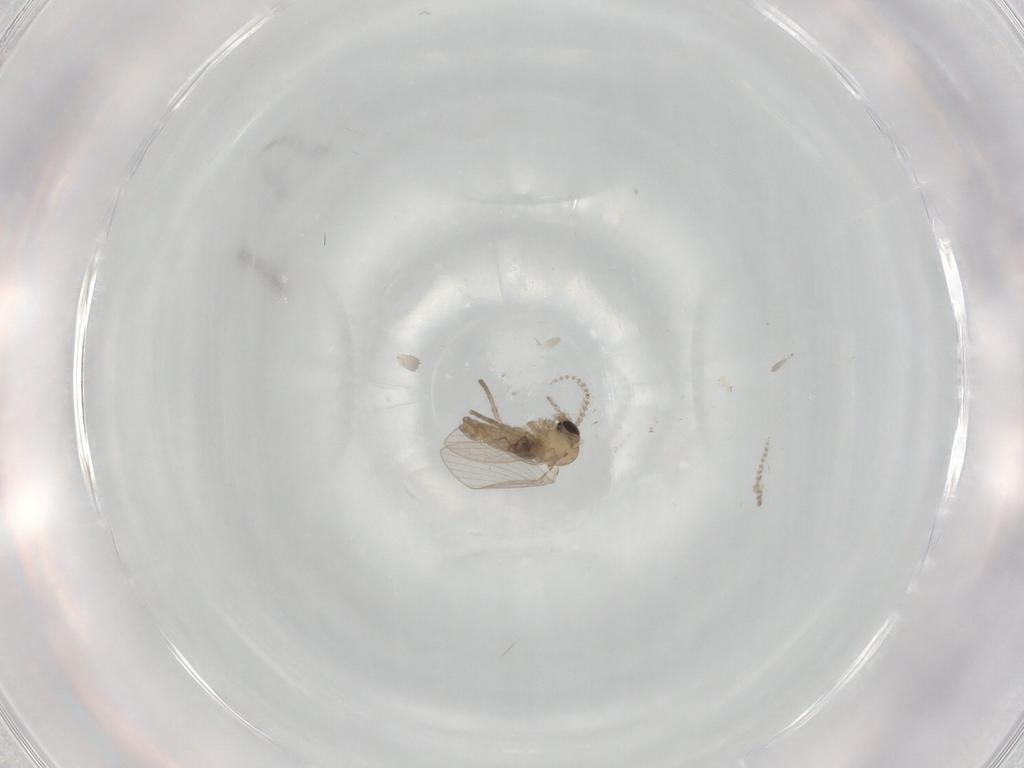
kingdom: Animalia
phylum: Arthropoda
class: Insecta
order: Diptera
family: Psychodidae
